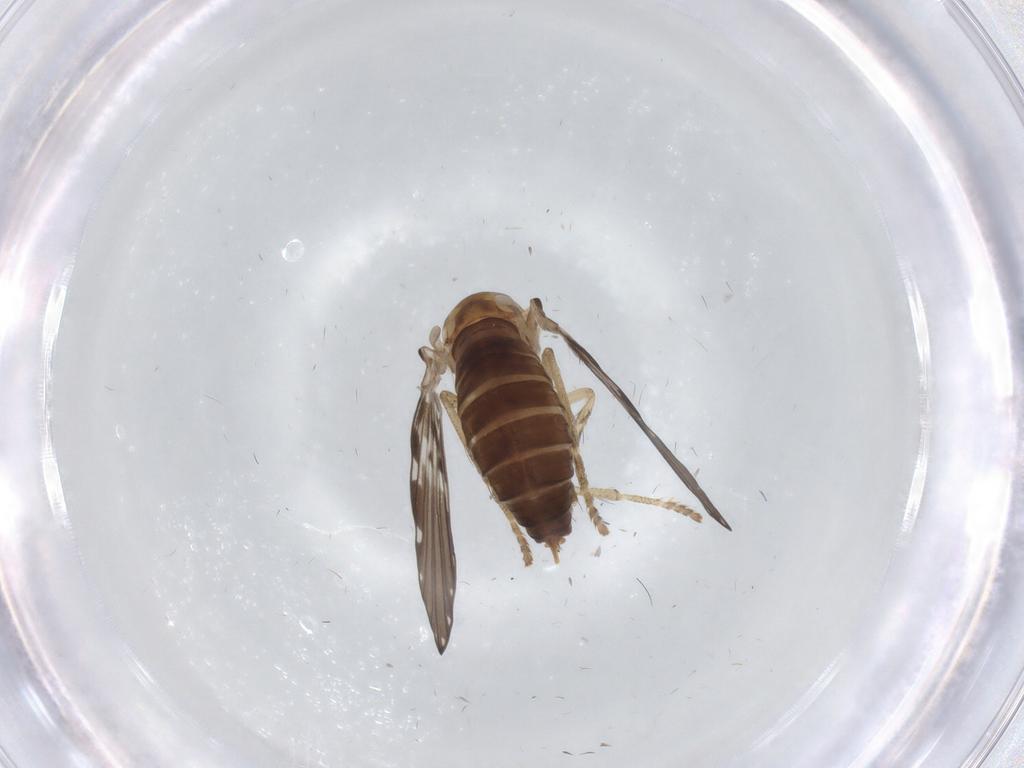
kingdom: Animalia
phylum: Arthropoda
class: Insecta
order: Diptera
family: Psychodidae
